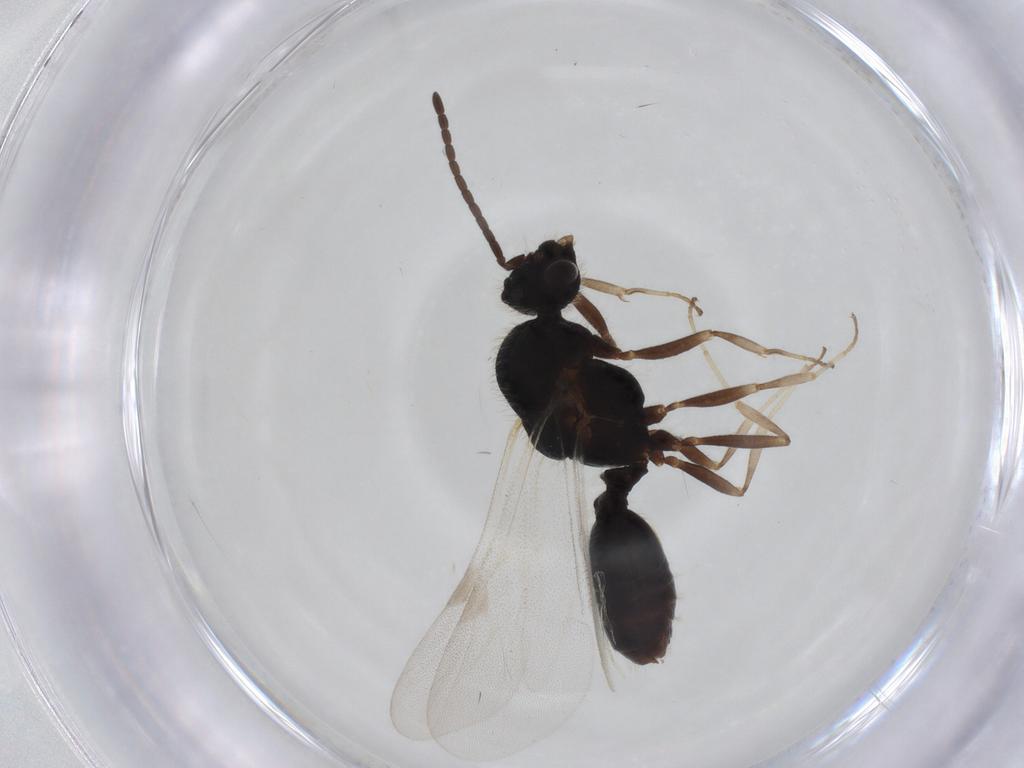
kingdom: Animalia
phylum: Arthropoda
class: Insecta
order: Hymenoptera
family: Formicidae
